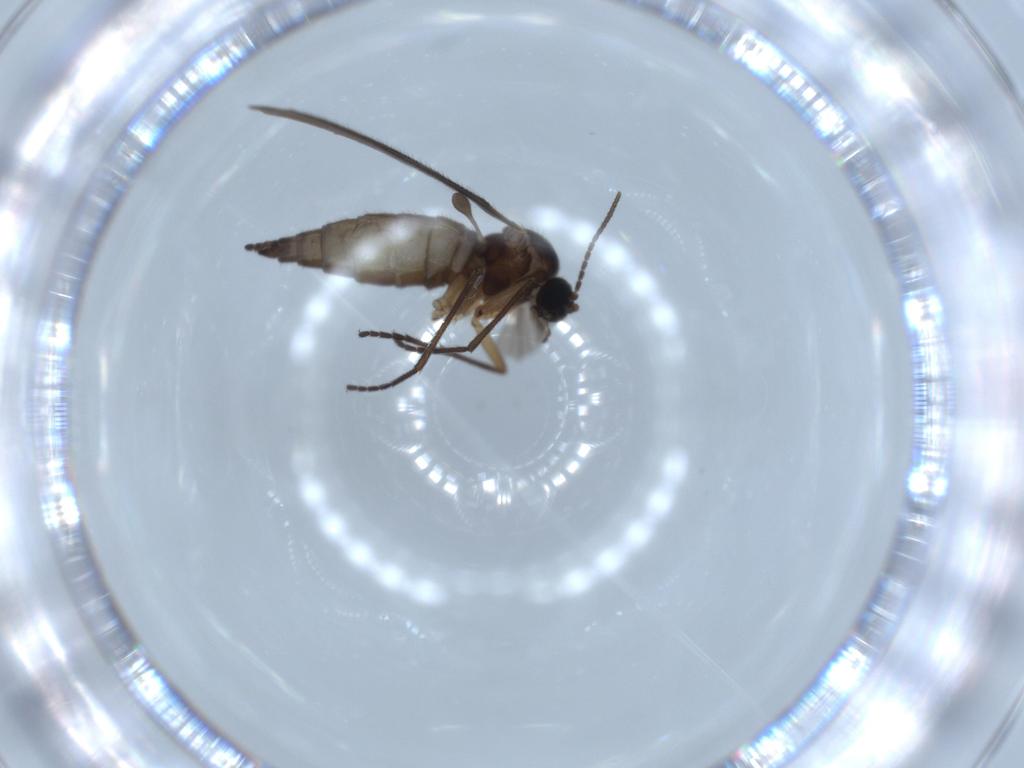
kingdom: Animalia
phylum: Arthropoda
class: Insecta
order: Diptera
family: Sciaridae
